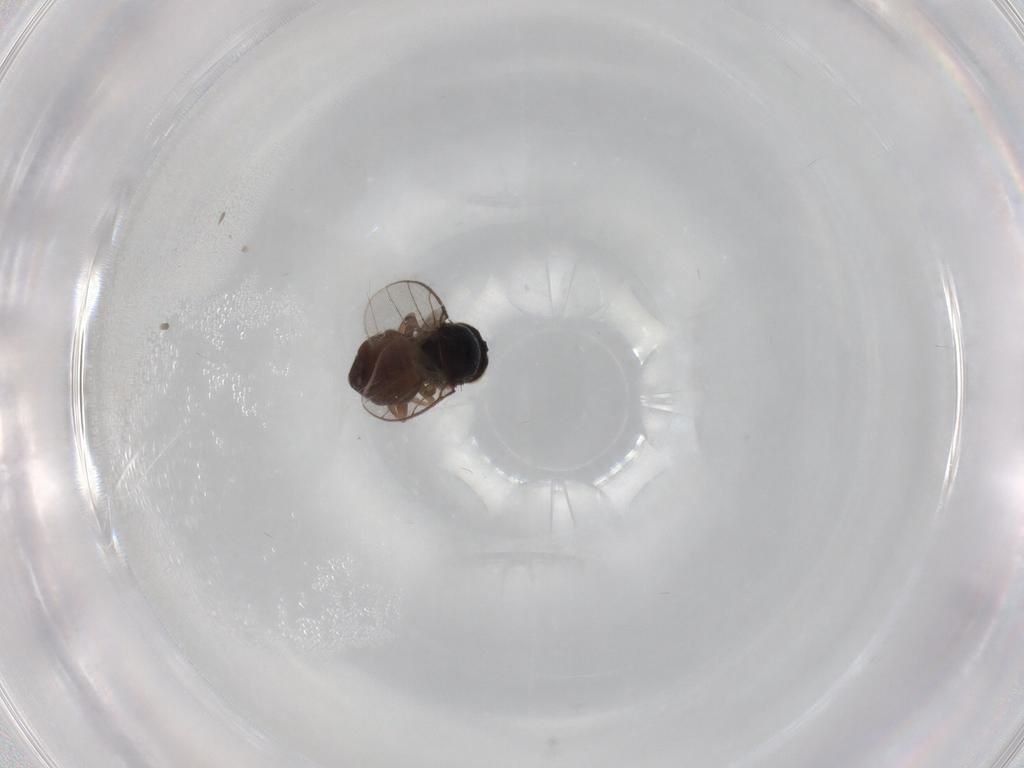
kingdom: Animalia
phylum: Arthropoda
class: Insecta
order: Diptera
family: Chloropidae
